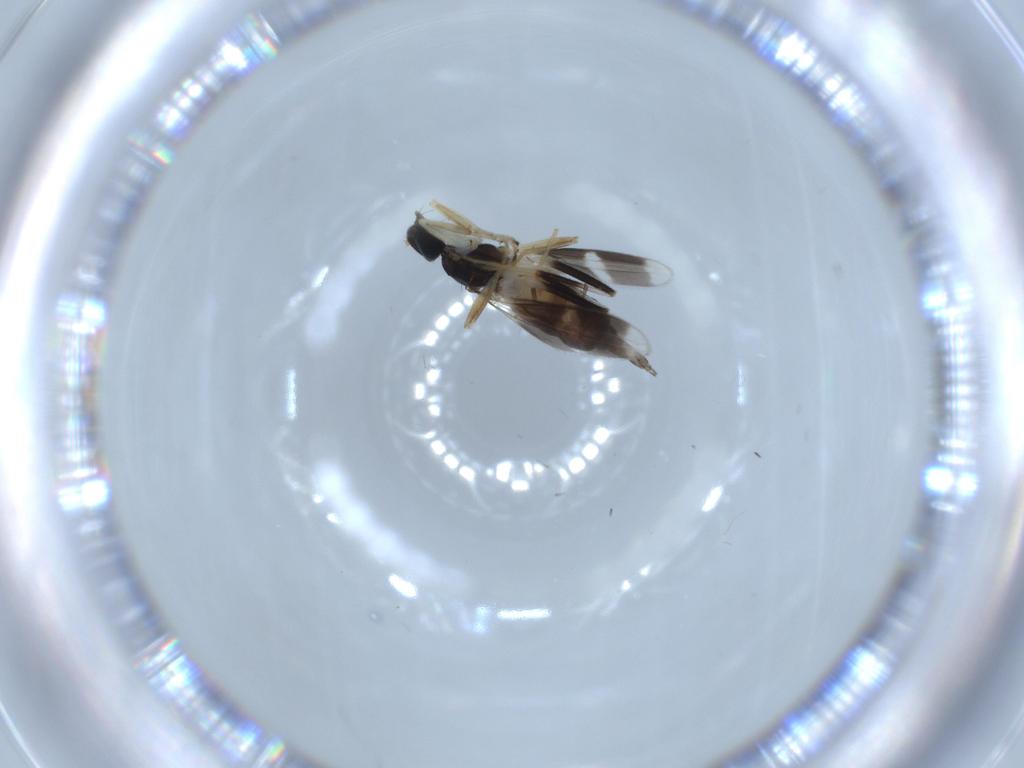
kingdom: Animalia
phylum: Arthropoda
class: Insecta
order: Diptera
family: Hybotidae
